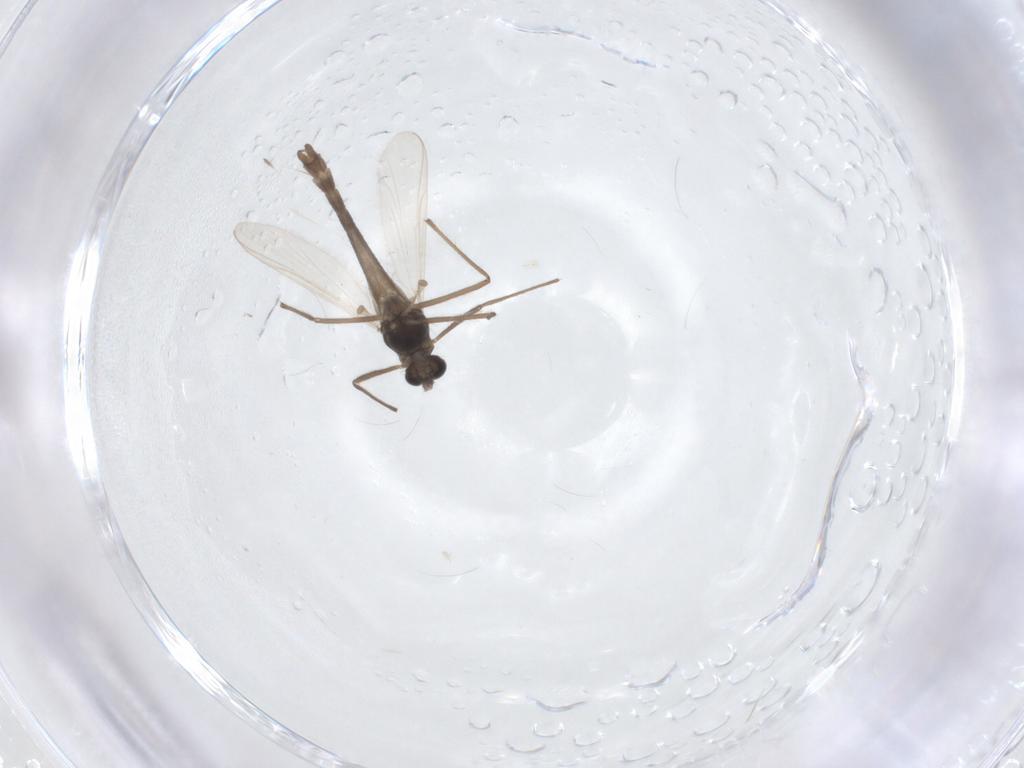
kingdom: Animalia
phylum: Arthropoda
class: Insecta
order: Diptera
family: Chironomidae
